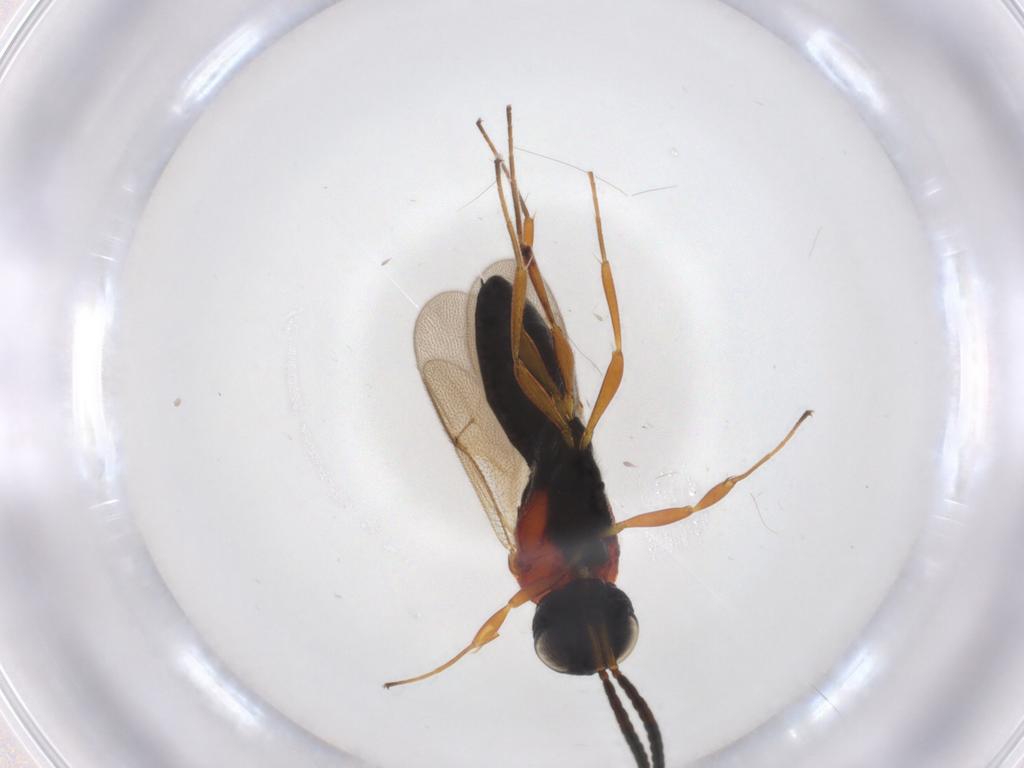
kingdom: Animalia
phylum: Arthropoda
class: Insecta
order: Hymenoptera
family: Scelionidae
